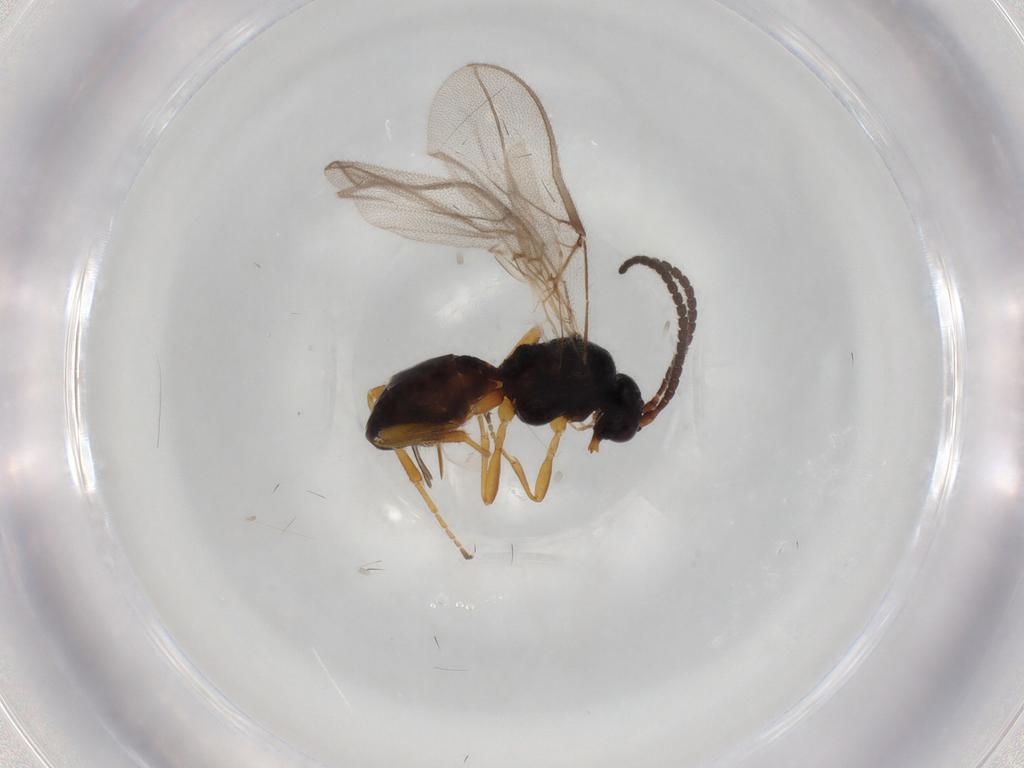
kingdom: Animalia
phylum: Arthropoda
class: Insecta
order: Hymenoptera
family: Braconidae
